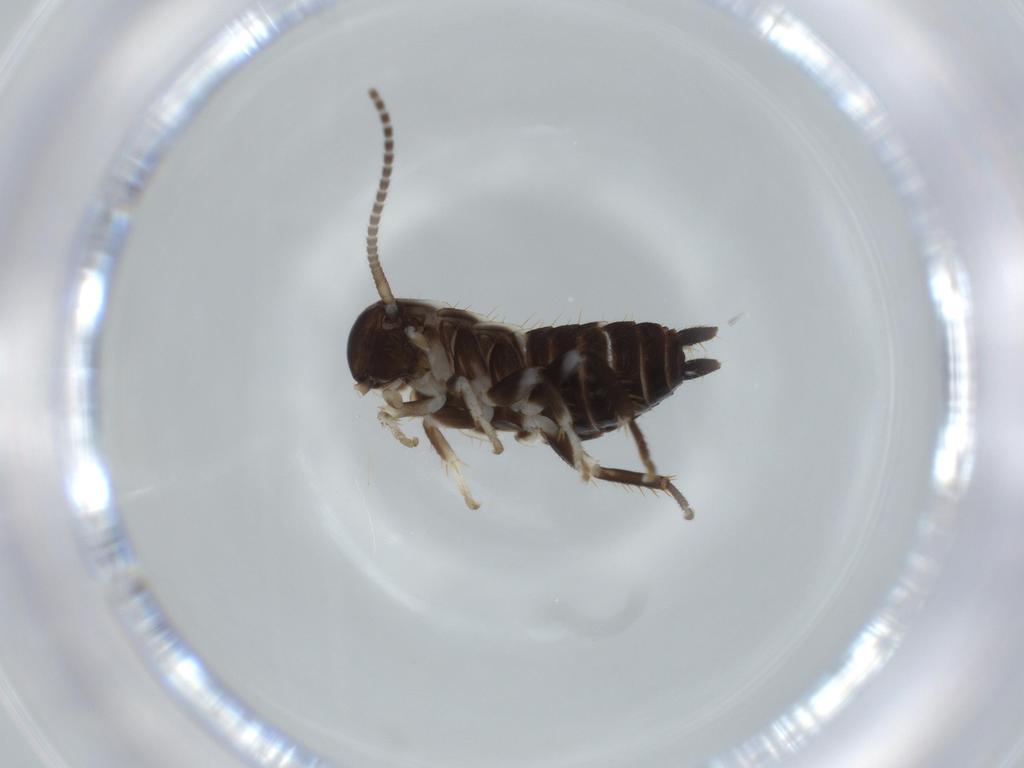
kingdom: Animalia
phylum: Arthropoda
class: Insecta
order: Blattodea
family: Ectobiidae
